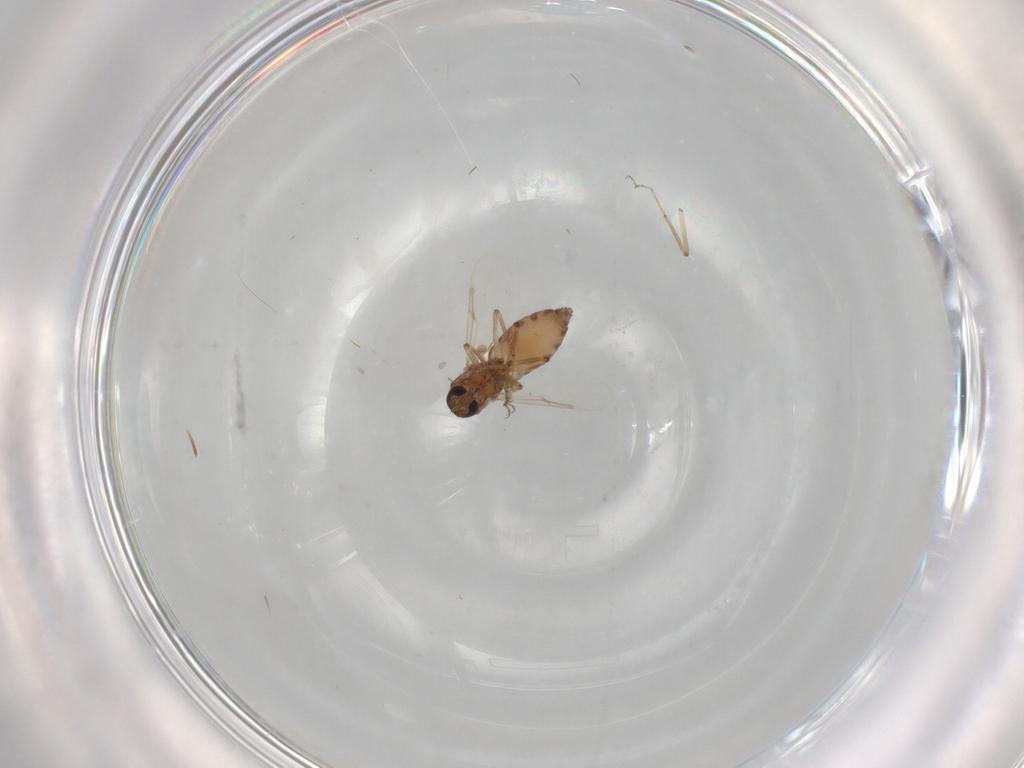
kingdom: Animalia
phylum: Arthropoda
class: Insecta
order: Diptera
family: Ceratopogonidae
